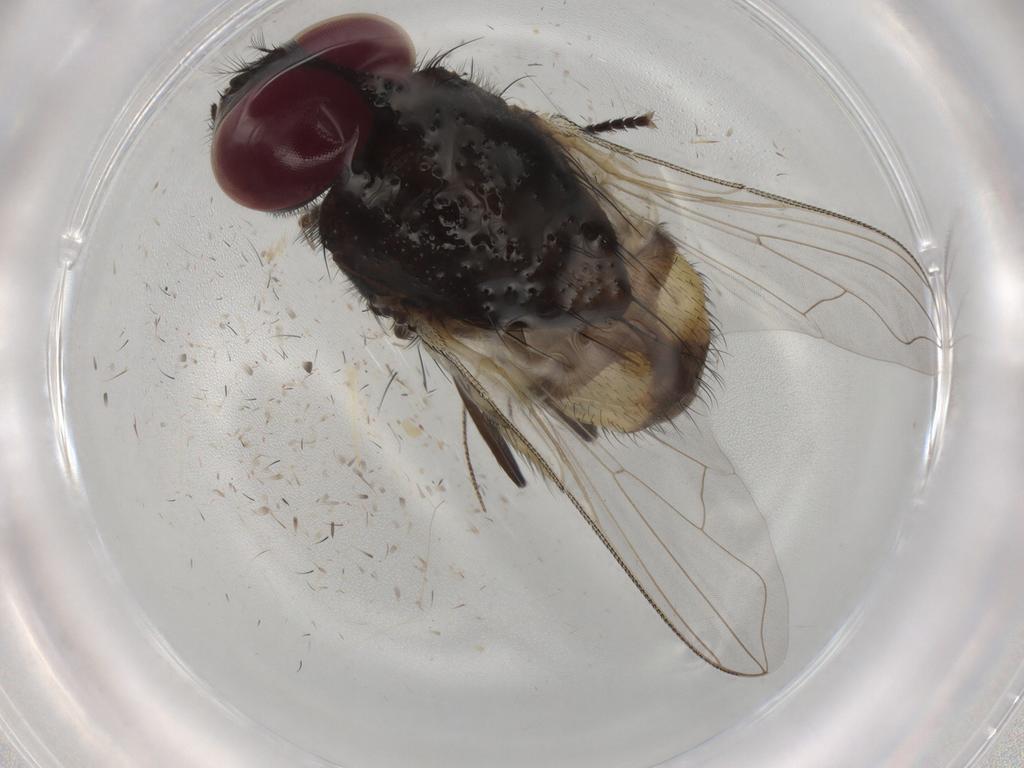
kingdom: Animalia
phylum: Arthropoda
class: Insecta
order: Diptera
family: Muscidae
